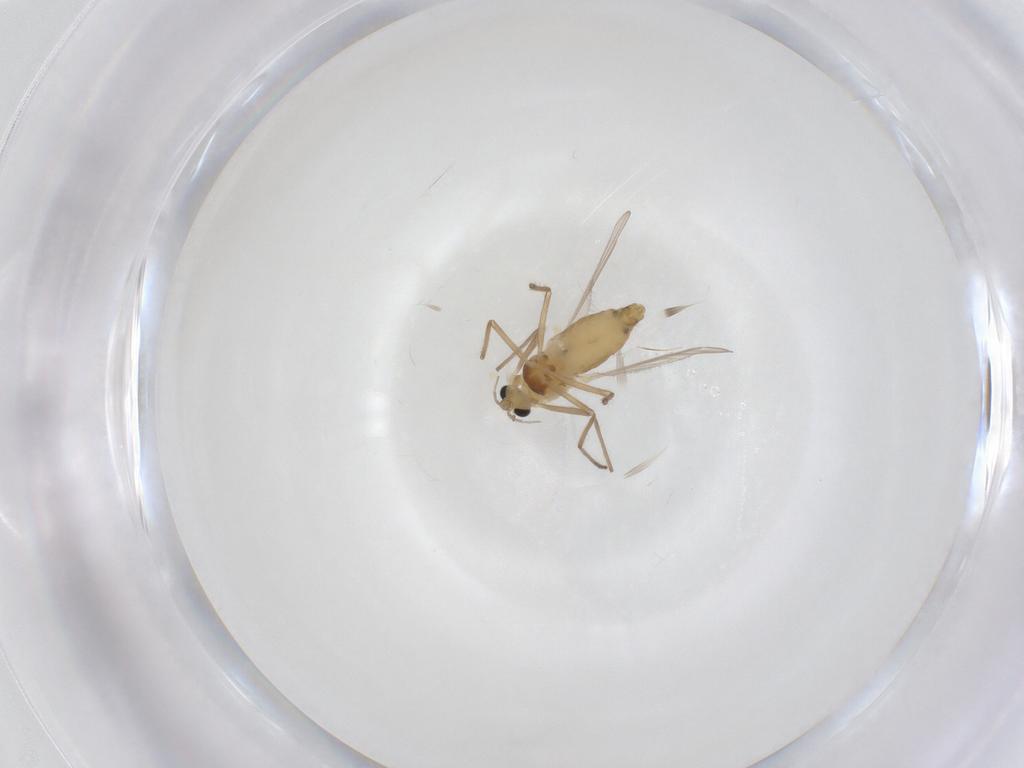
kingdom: Animalia
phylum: Arthropoda
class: Insecta
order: Diptera
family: Chironomidae
